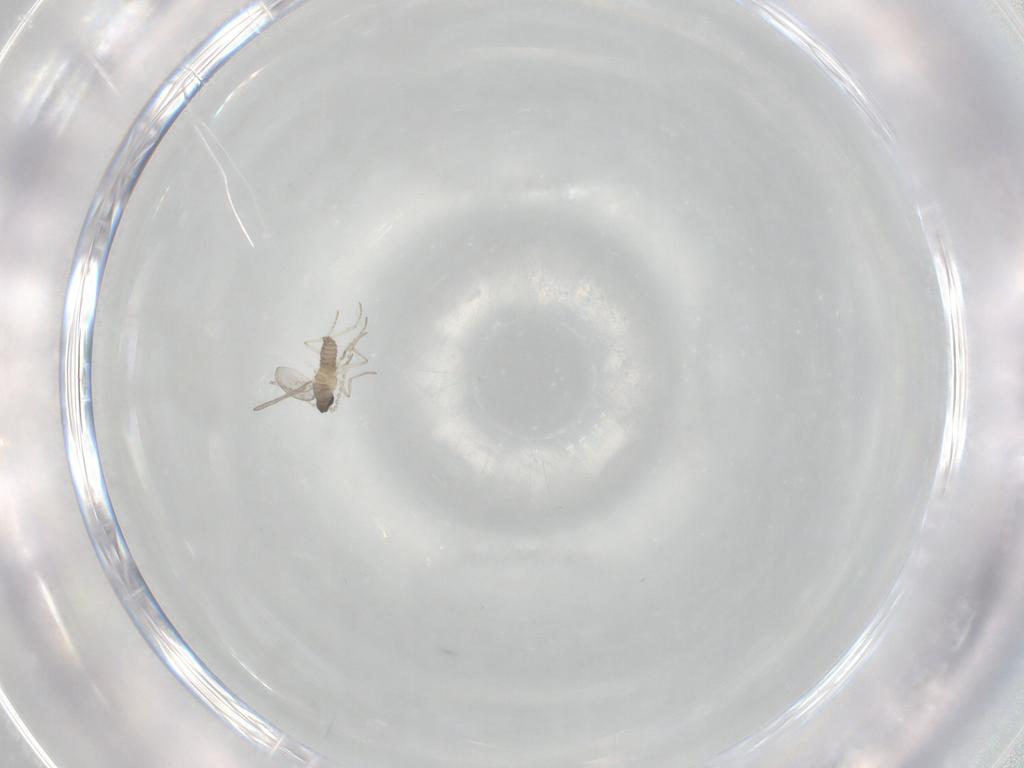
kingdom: Animalia
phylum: Arthropoda
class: Insecta
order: Diptera
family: Cecidomyiidae
